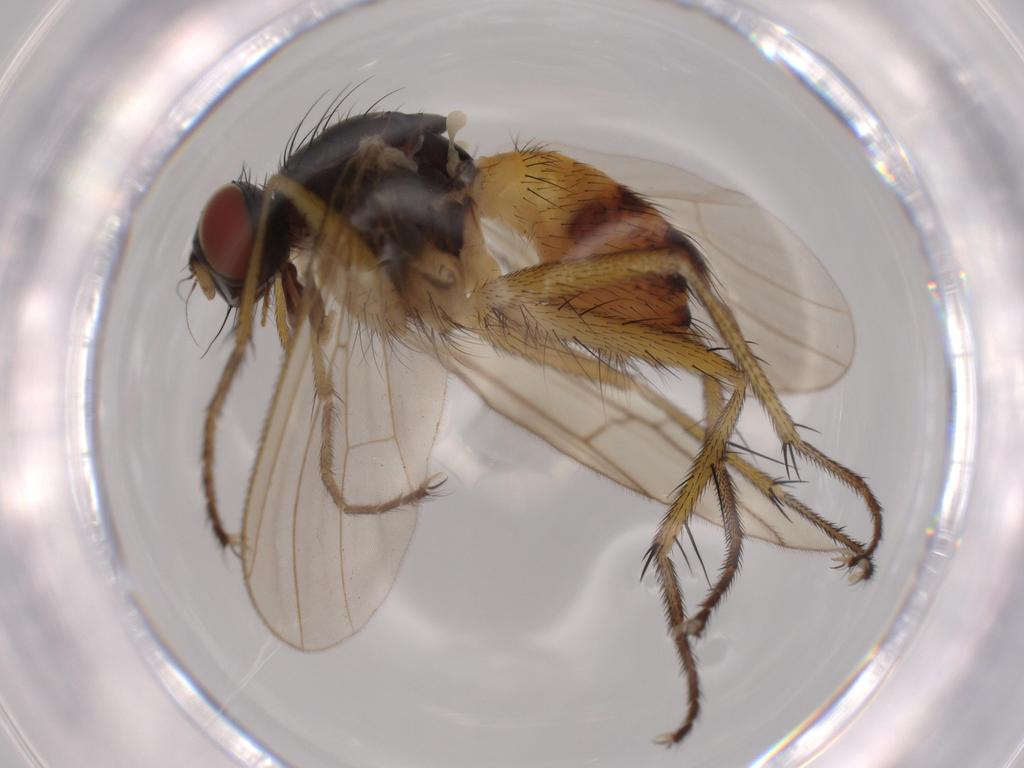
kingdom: Animalia
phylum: Arthropoda
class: Insecta
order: Diptera
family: Muscidae
